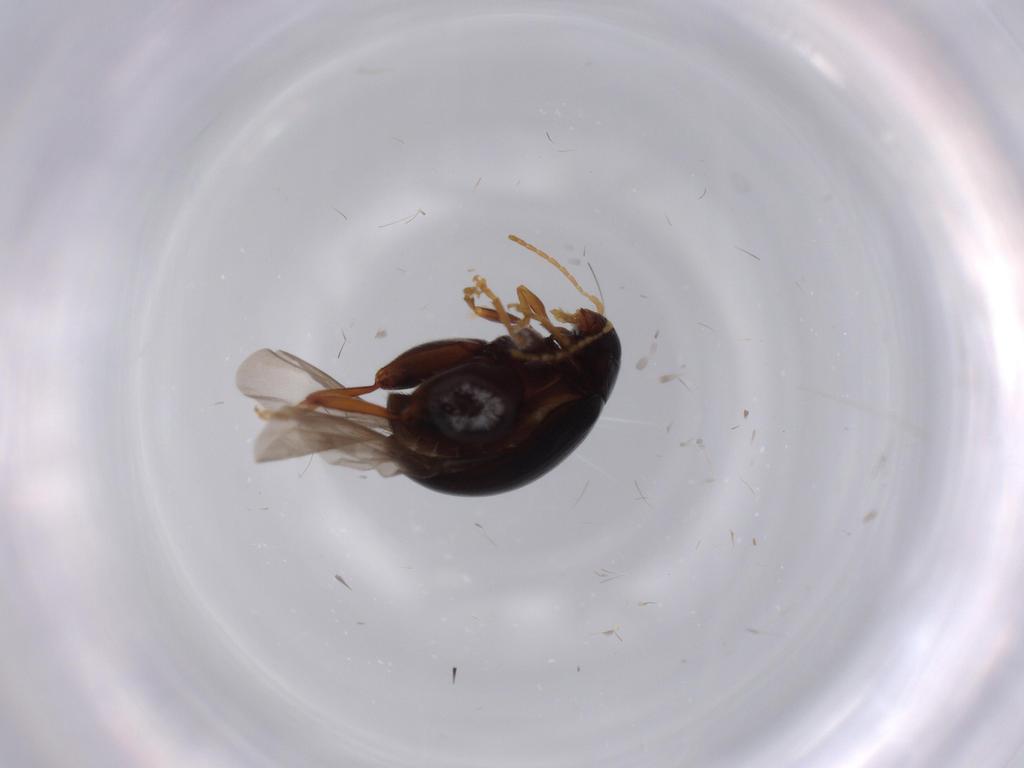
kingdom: Animalia
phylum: Arthropoda
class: Insecta
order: Coleoptera
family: Chrysomelidae
